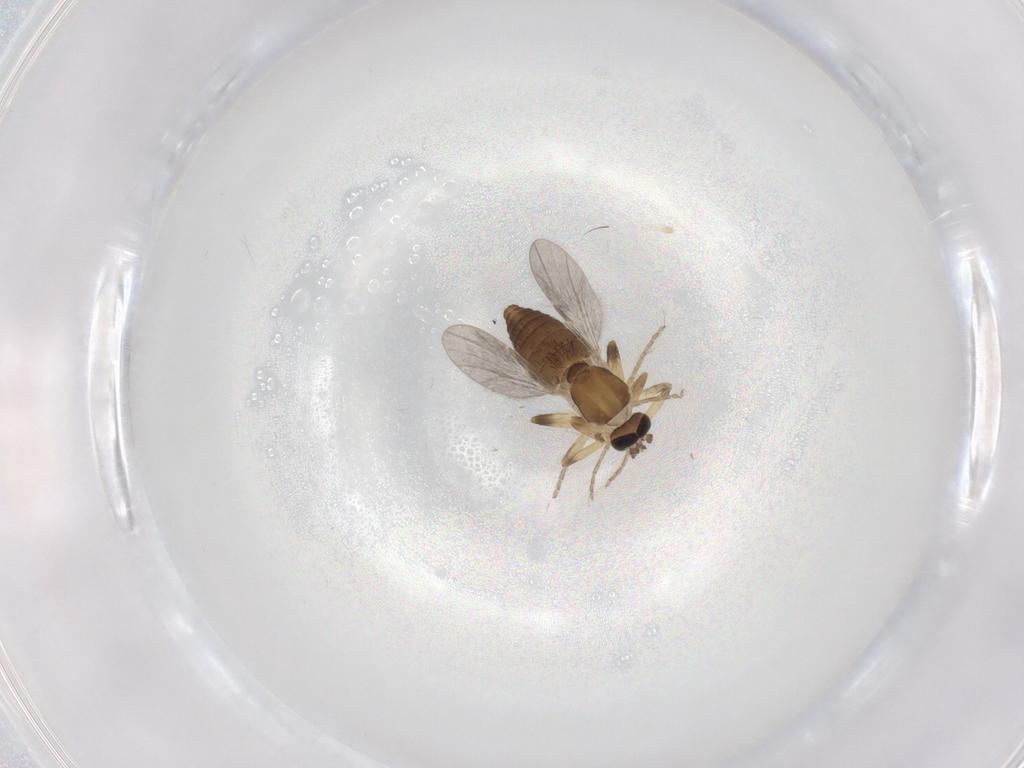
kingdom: Animalia
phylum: Arthropoda
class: Insecta
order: Diptera
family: Ceratopogonidae
